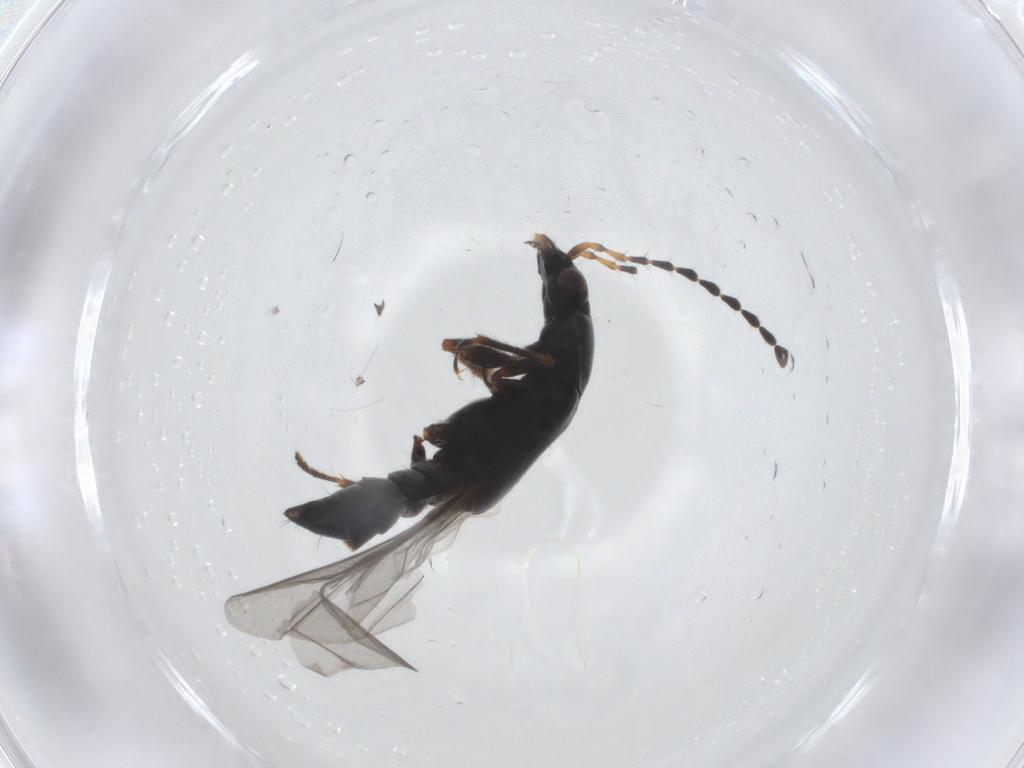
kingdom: Animalia
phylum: Arthropoda
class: Insecta
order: Coleoptera
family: Staphylinidae
